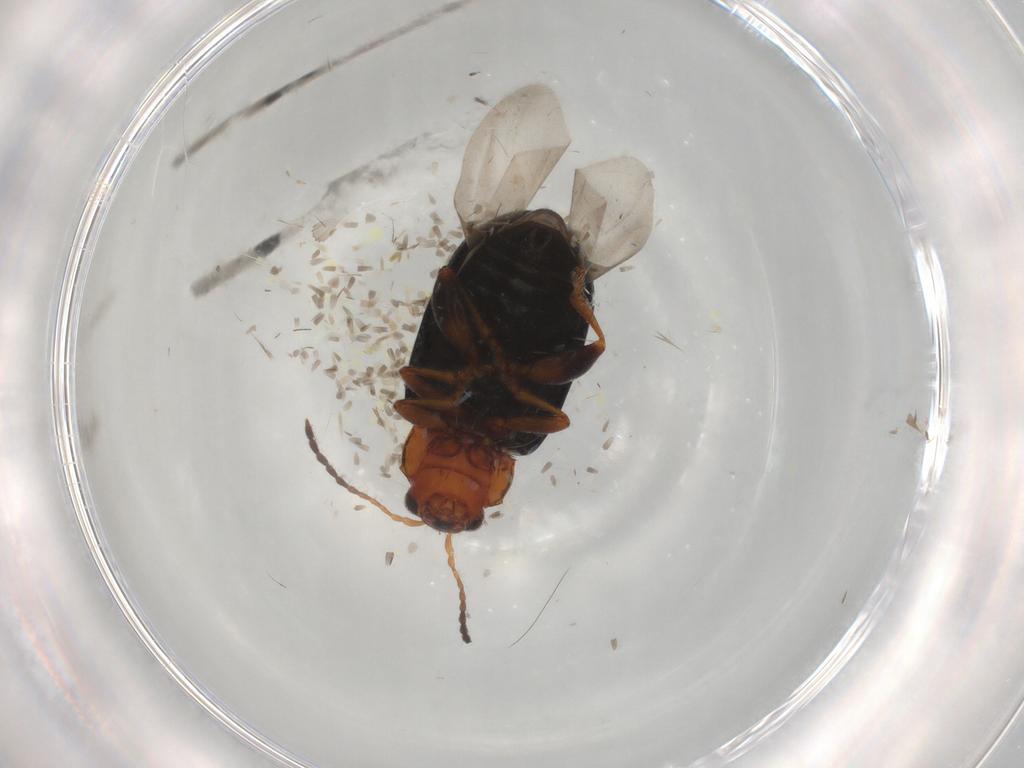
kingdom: Animalia
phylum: Arthropoda
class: Insecta
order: Coleoptera
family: Chrysomelidae
